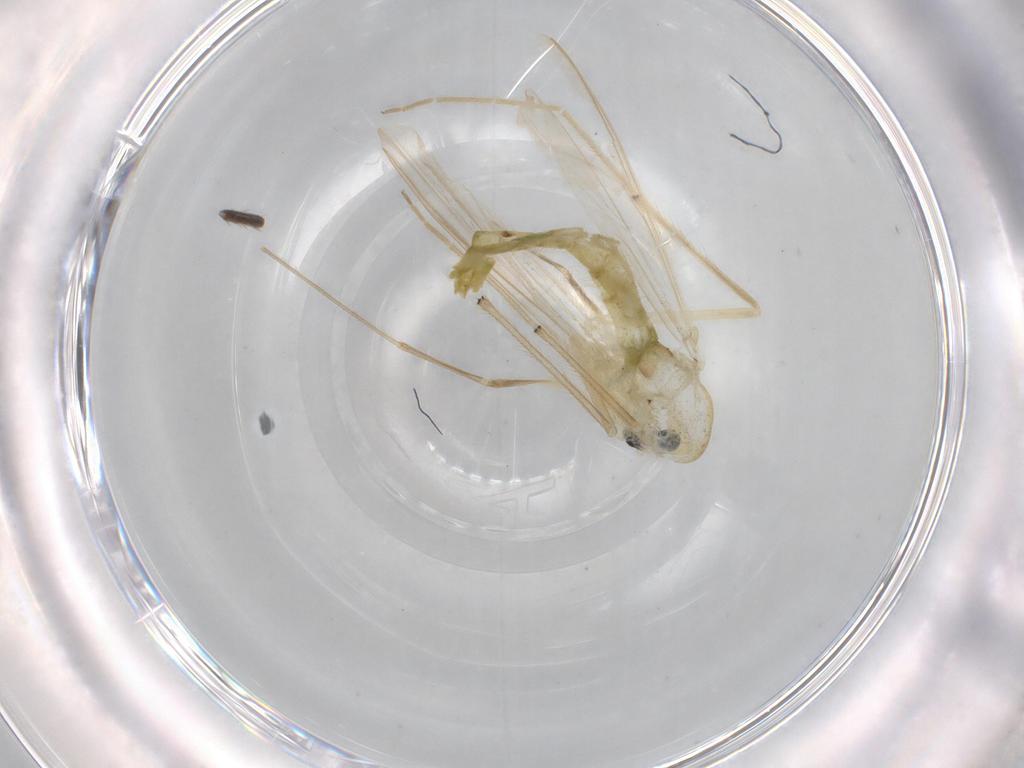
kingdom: Animalia
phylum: Arthropoda
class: Insecta
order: Diptera
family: Chironomidae
